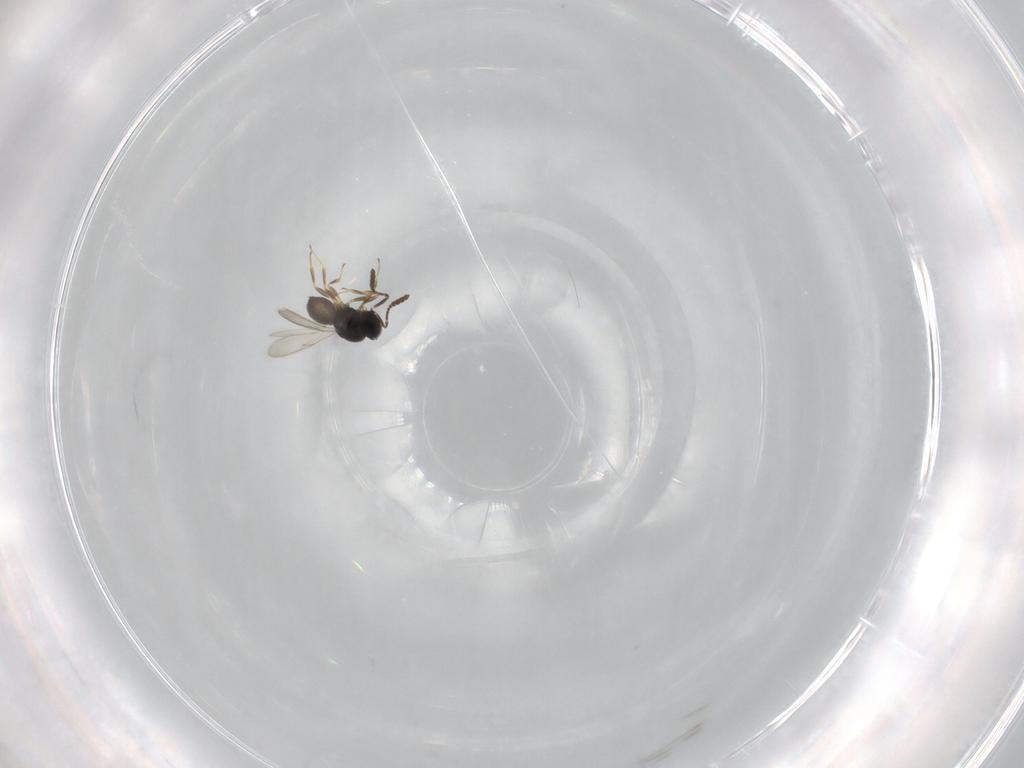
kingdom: Animalia
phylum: Arthropoda
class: Insecta
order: Hymenoptera
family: Scelionidae
